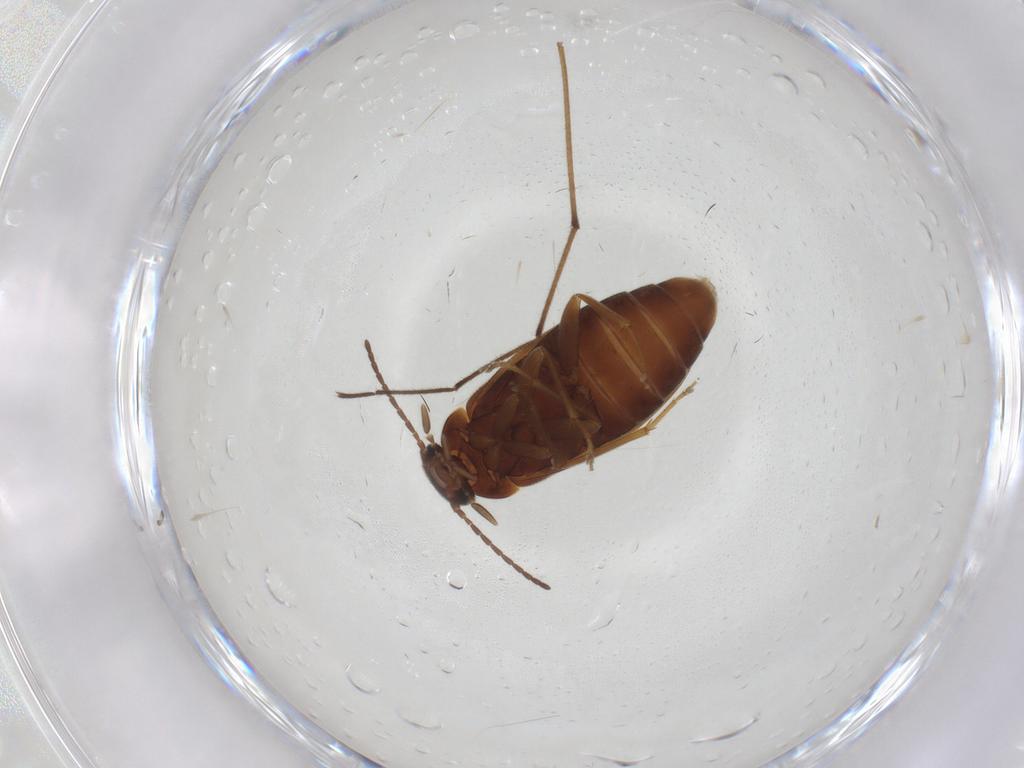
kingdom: Animalia
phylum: Arthropoda
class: Insecta
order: Coleoptera
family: Scraptiidae
